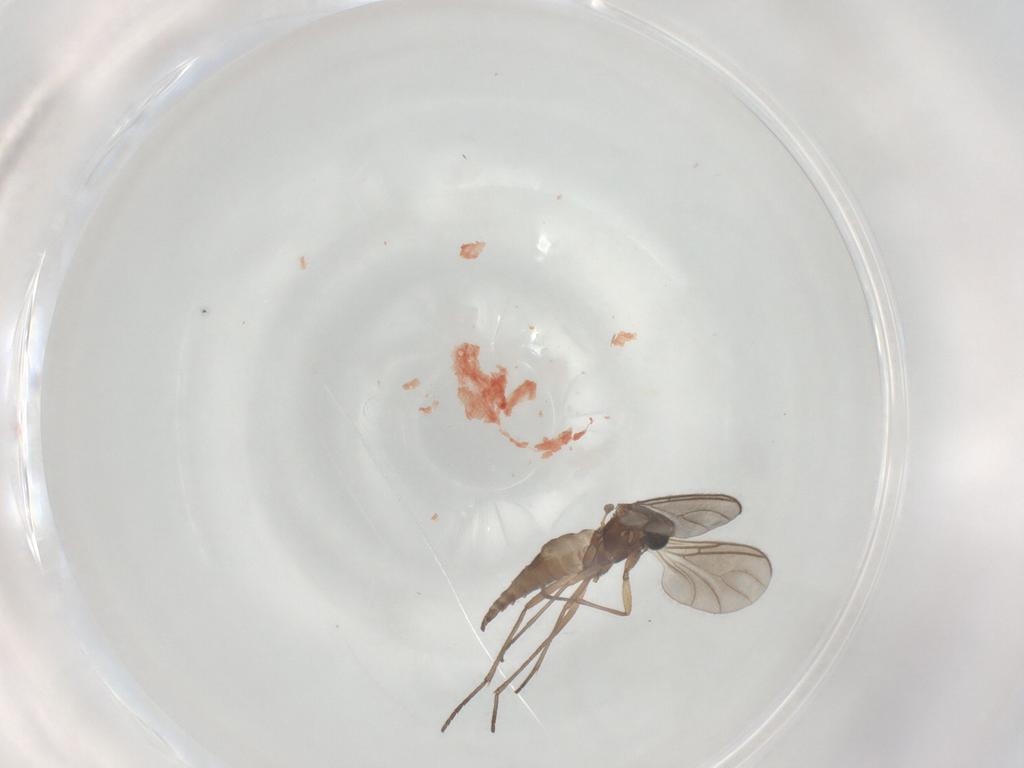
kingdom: Animalia
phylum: Arthropoda
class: Insecta
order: Diptera
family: Sciaridae
